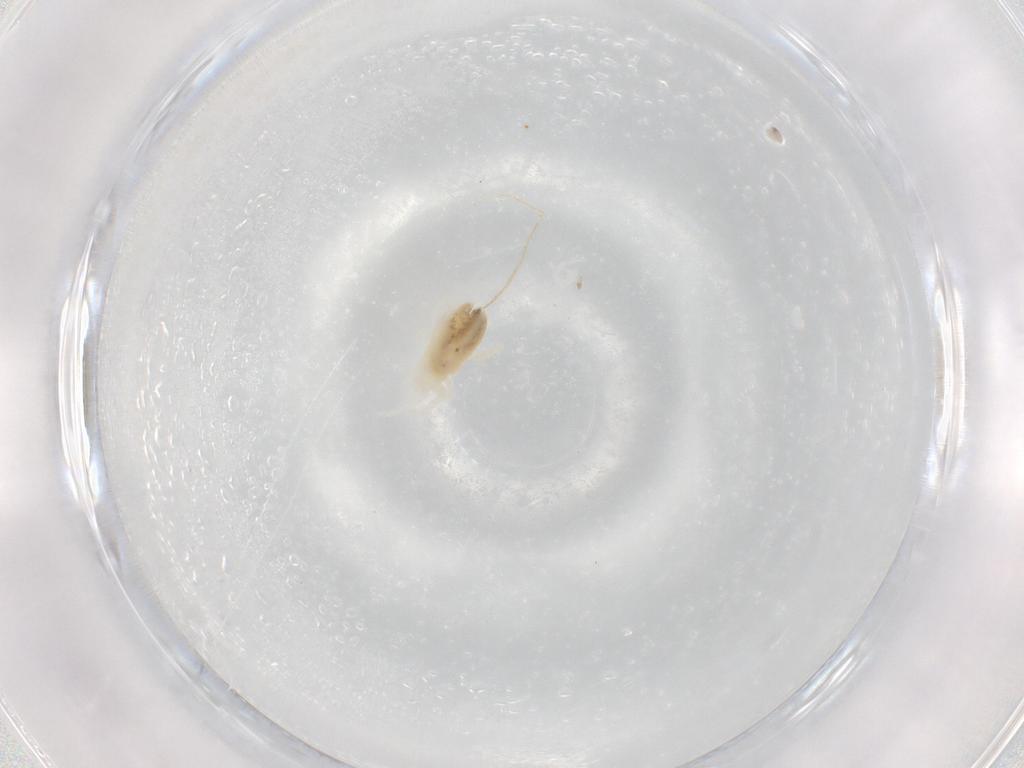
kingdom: Animalia
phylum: Arthropoda
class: Arachnida
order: Trombidiformes
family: Rhagidiidae
